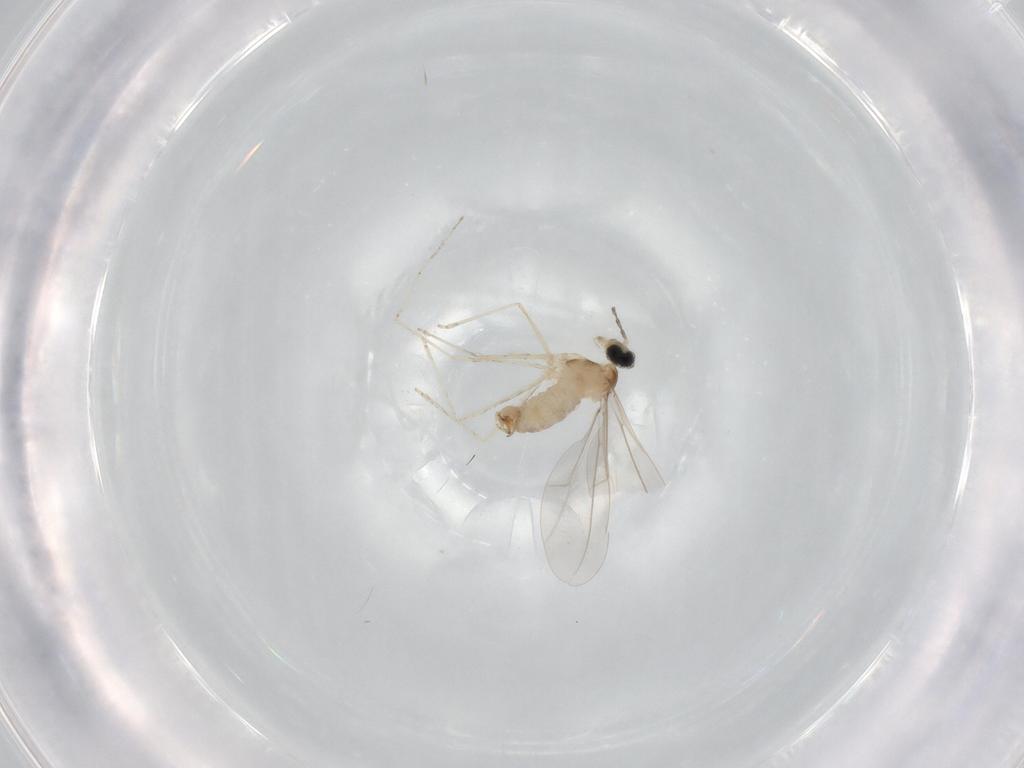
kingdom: Animalia
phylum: Arthropoda
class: Insecta
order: Diptera
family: Cecidomyiidae
